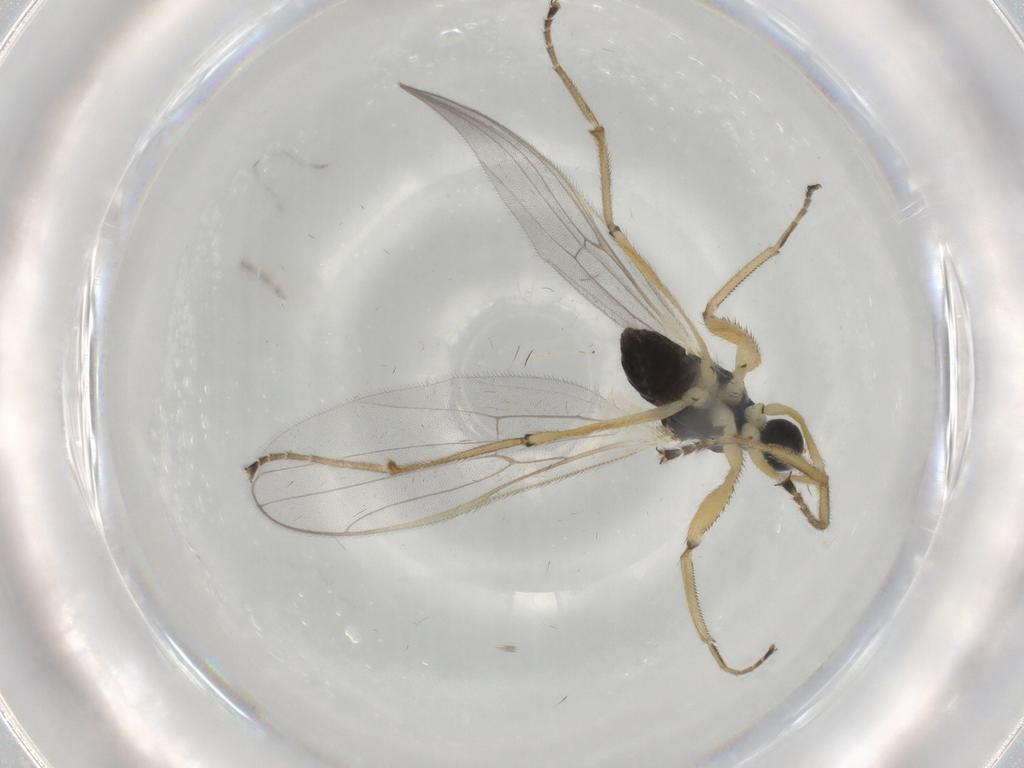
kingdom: Animalia
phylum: Arthropoda
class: Insecta
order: Diptera
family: Hybotidae
